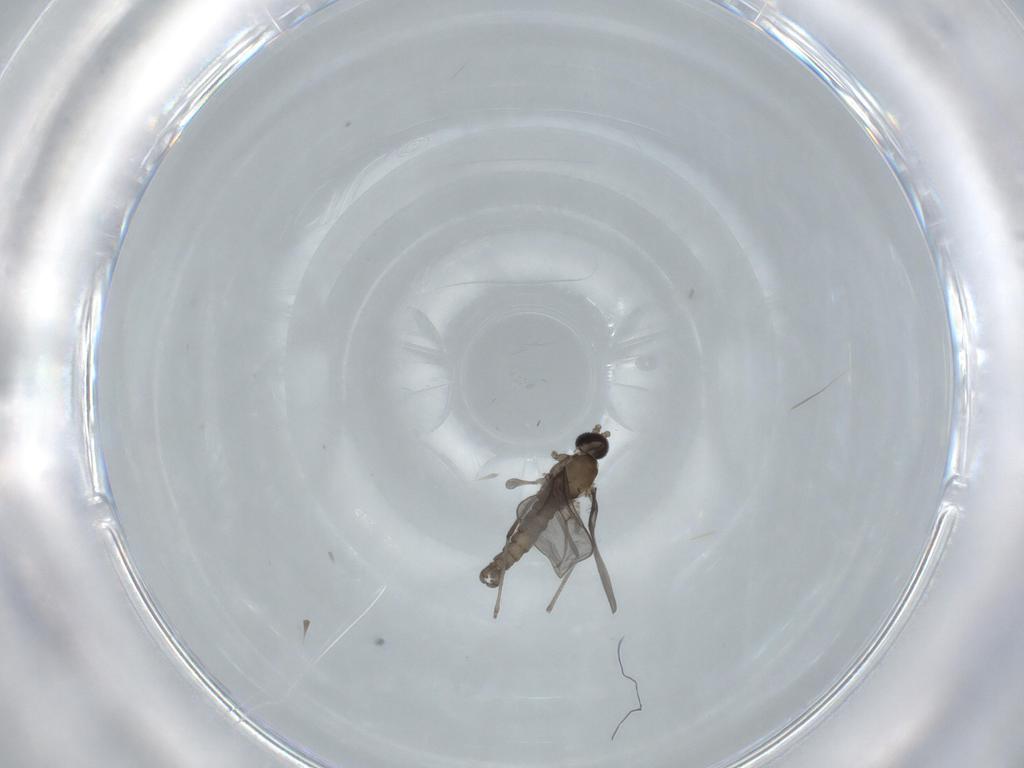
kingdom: Animalia
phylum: Arthropoda
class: Insecta
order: Diptera
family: Cecidomyiidae
